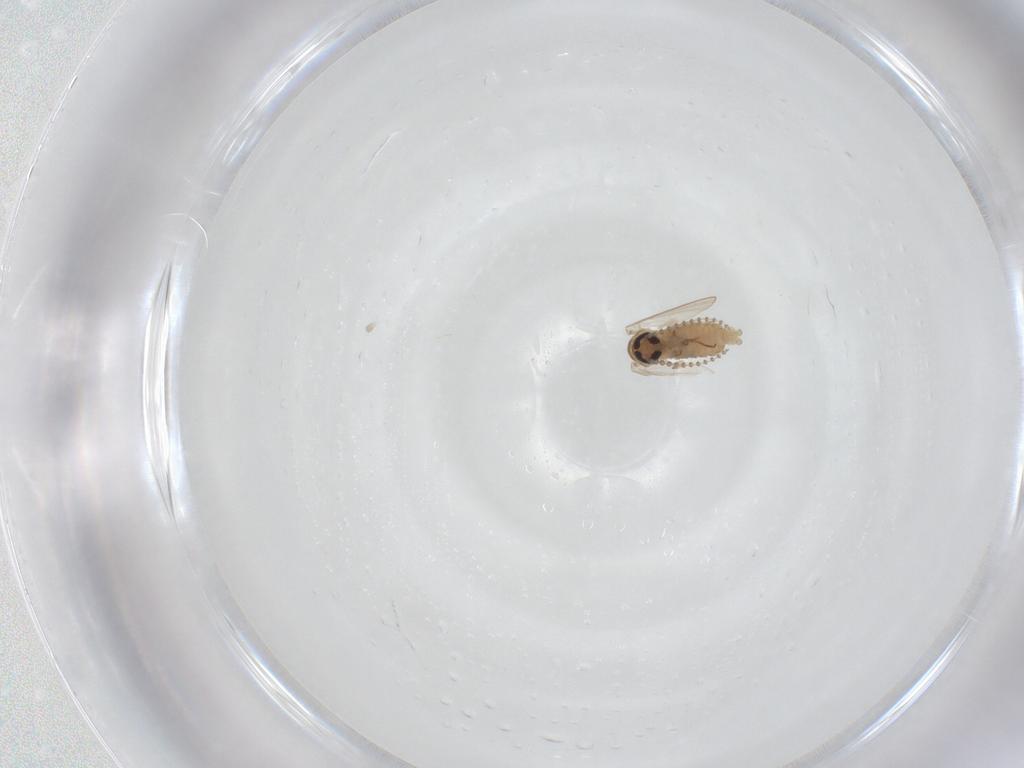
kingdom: Animalia
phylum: Arthropoda
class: Insecta
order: Diptera
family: Psychodidae
